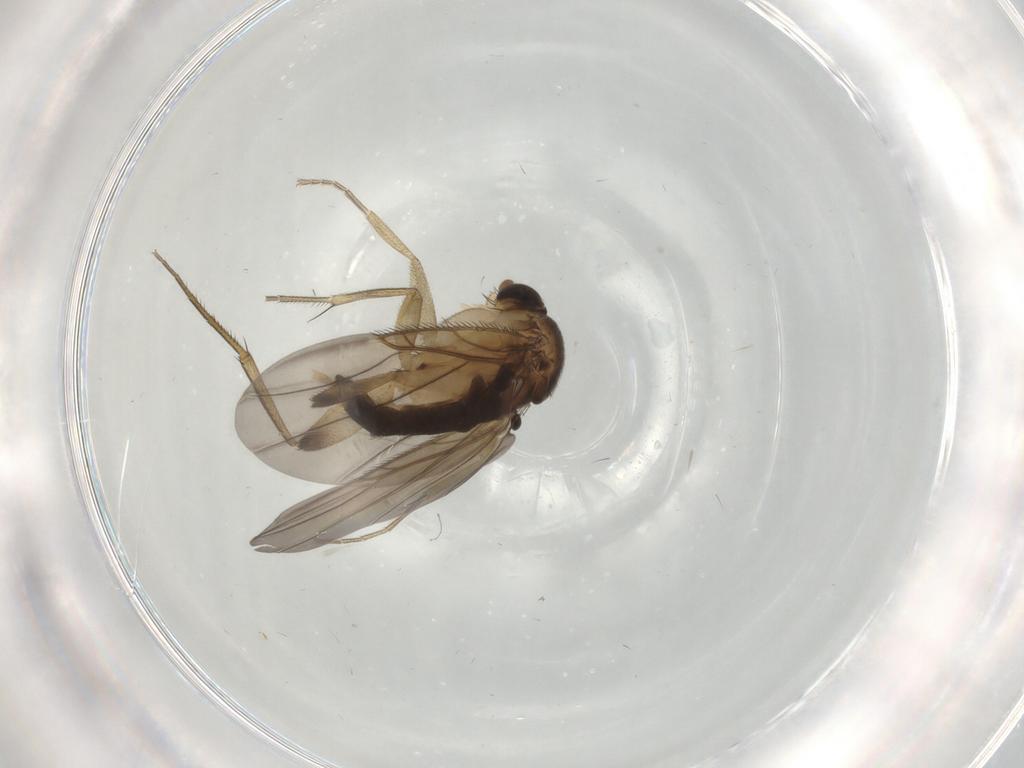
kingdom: Animalia
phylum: Arthropoda
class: Insecta
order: Diptera
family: Phoridae
